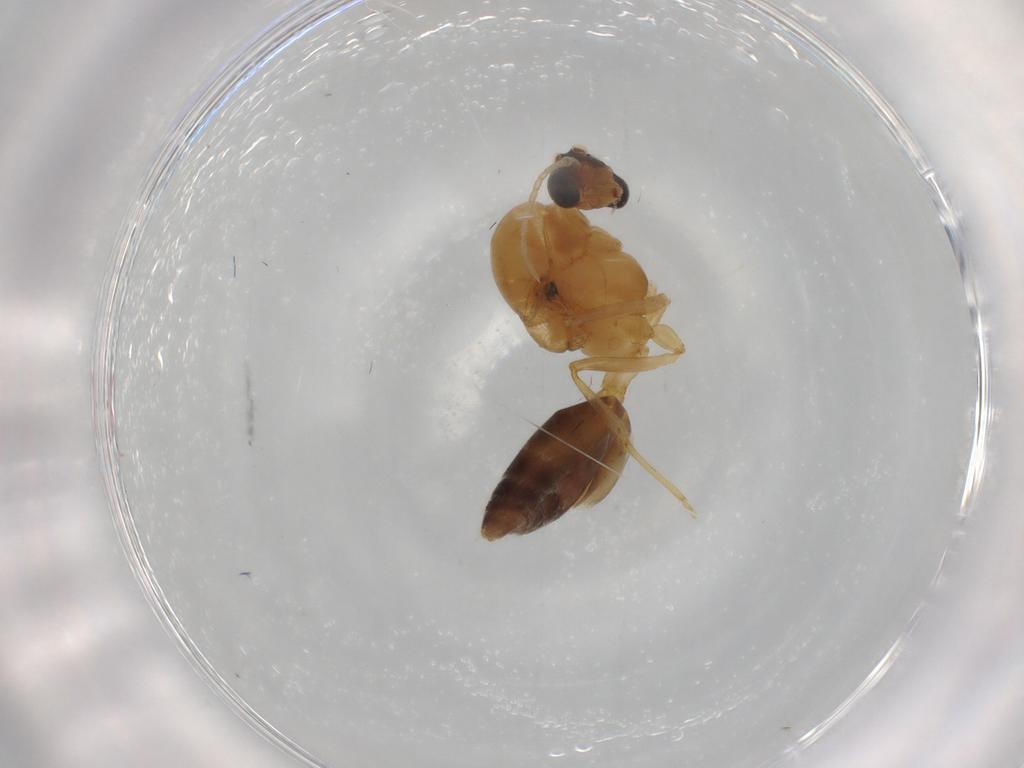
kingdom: Animalia
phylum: Arthropoda
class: Insecta
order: Hymenoptera
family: Formicidae
